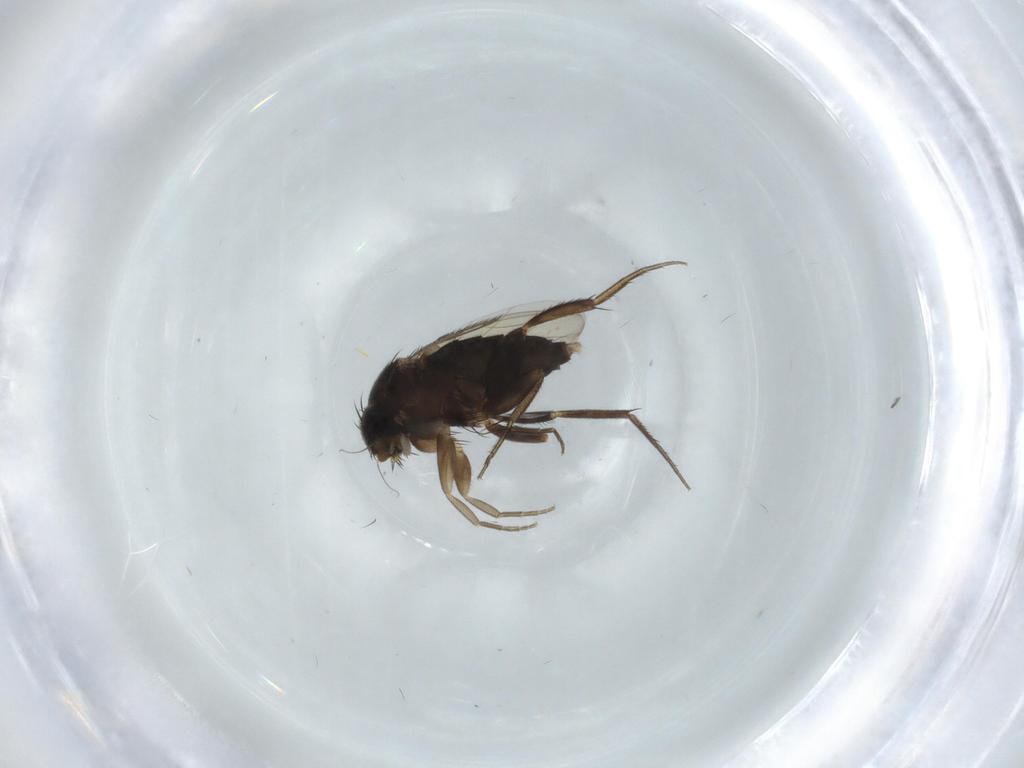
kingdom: Animalia
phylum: Arthropoda
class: Insecta
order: Diptera
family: Phoridae
